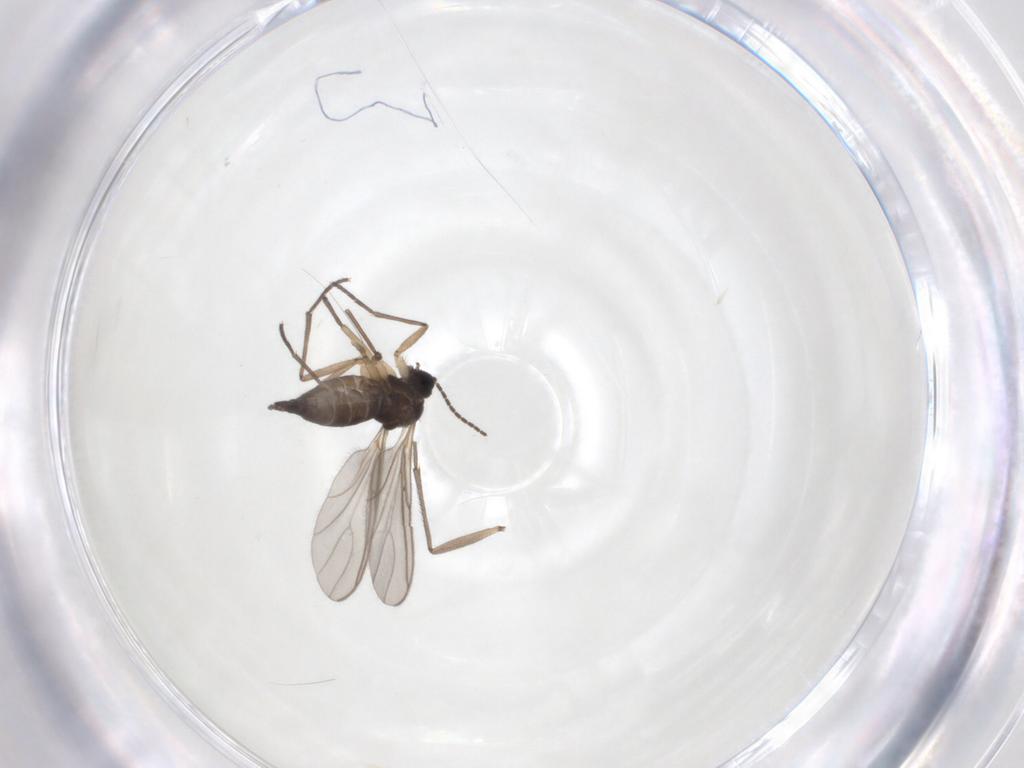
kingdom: Animalia
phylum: Arthropoda
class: Insecta
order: Diptera
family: Sciaridae
